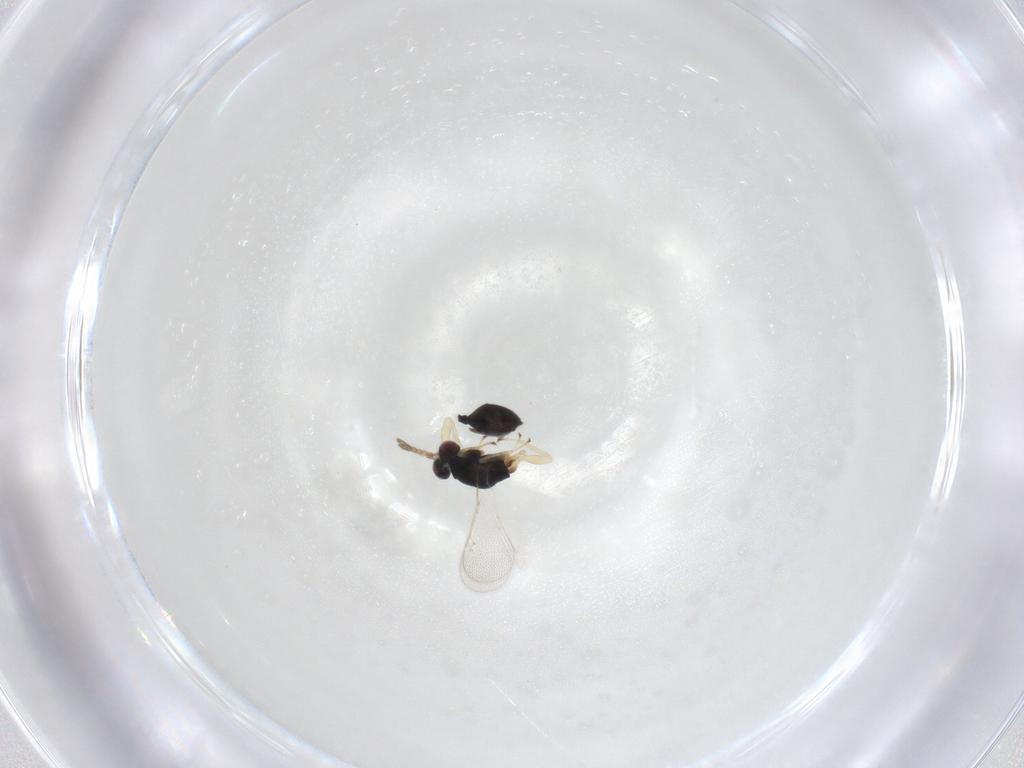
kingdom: Animalia
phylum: Arthropoda
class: Insecta
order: Hymenoptera
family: Eulophidae
